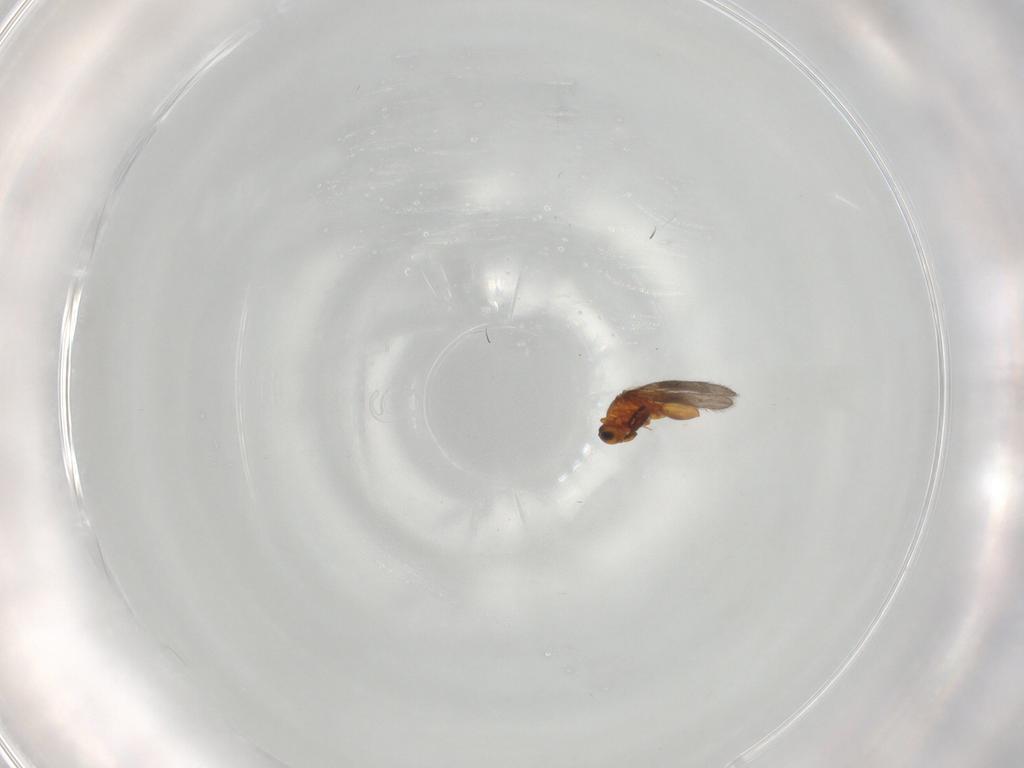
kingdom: Animalia
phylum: Arthropoda
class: Insecta
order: Hymenoptera
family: Platygastridae
